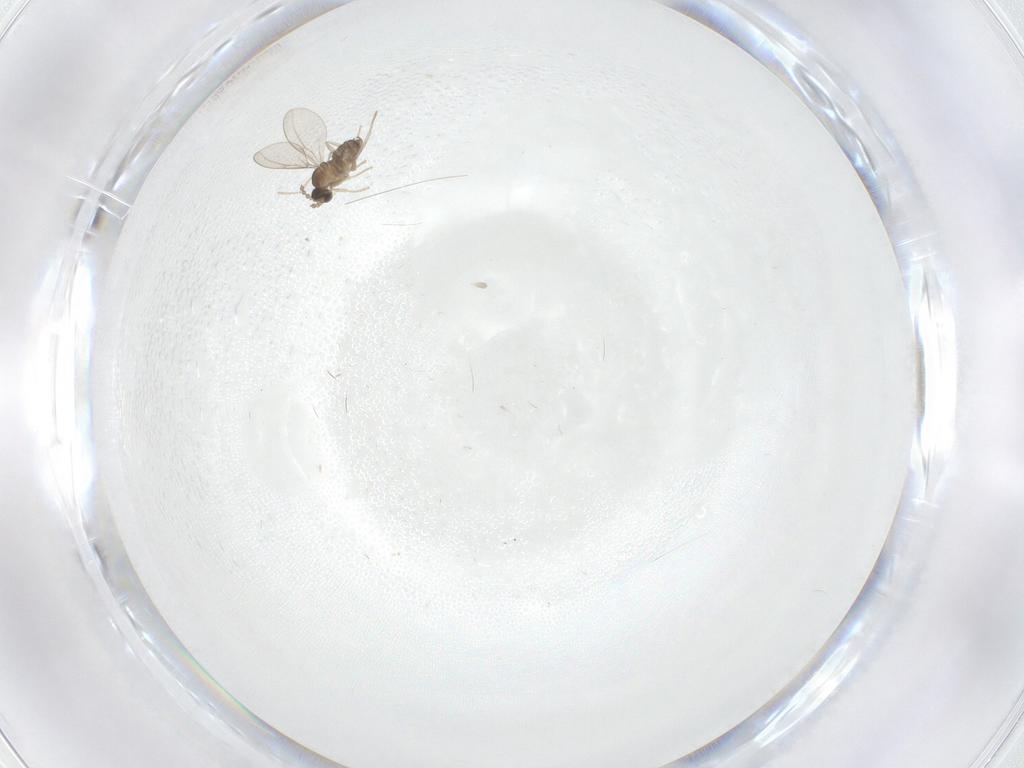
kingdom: Animalia
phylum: Arthropoda
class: Insecta
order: Diptera
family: Cecidomyiidae
